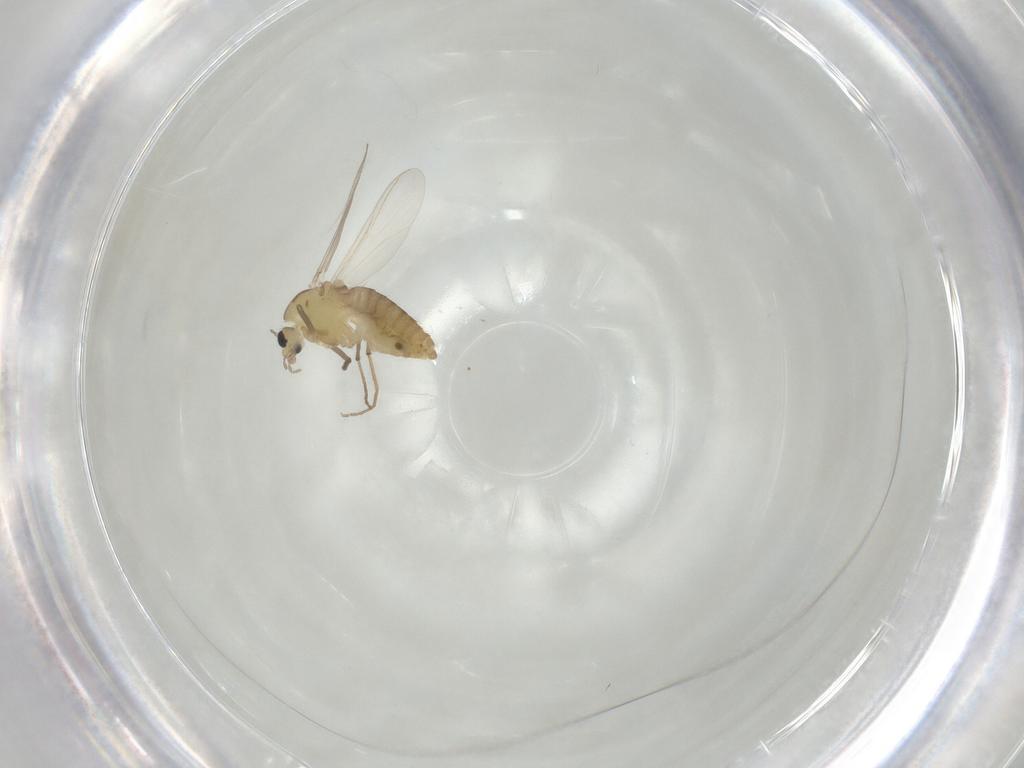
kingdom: Animalia
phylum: Arthropoda
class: Insecta
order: Diptera
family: Chironomidae
